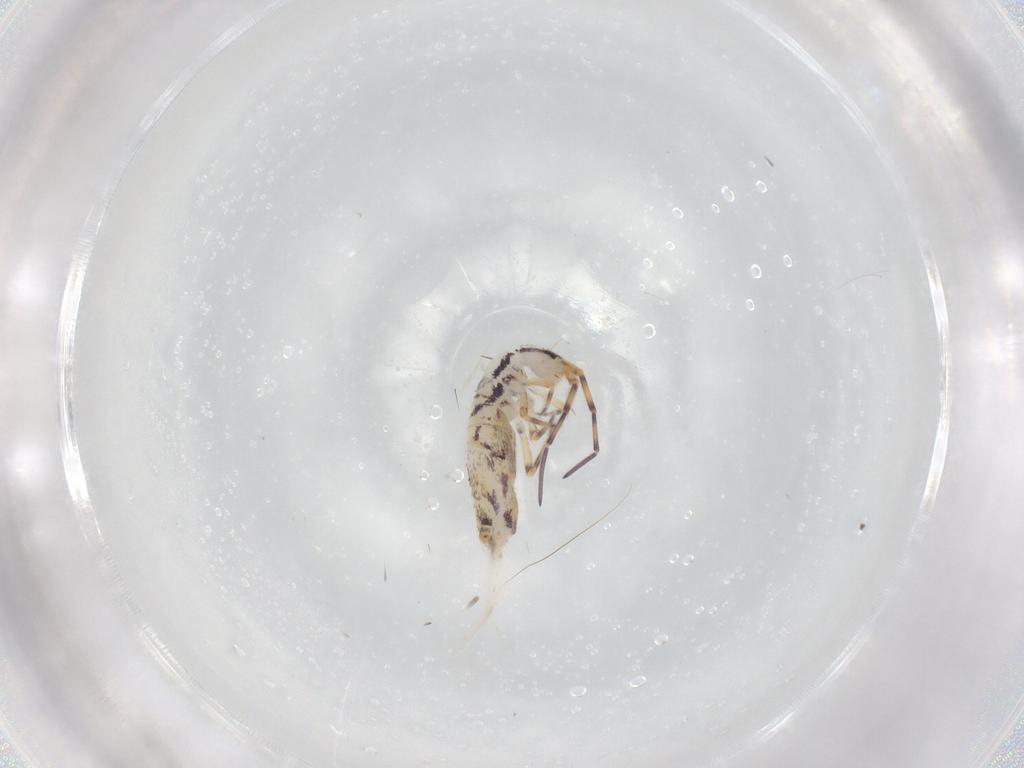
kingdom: Animalia
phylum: Arthropoda
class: Collembola
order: Entomobryomorpha
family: Entomobryidae
